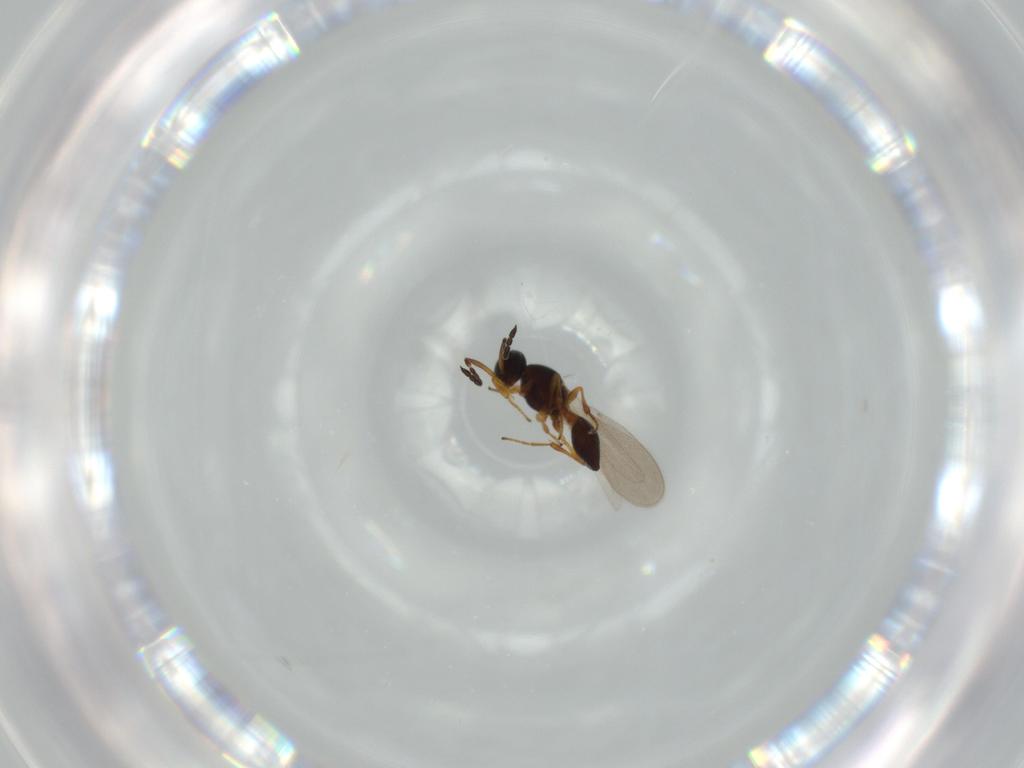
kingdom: Animalia
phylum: Arthropoda
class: Insecta
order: Hymenoptera
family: Platygastridae
